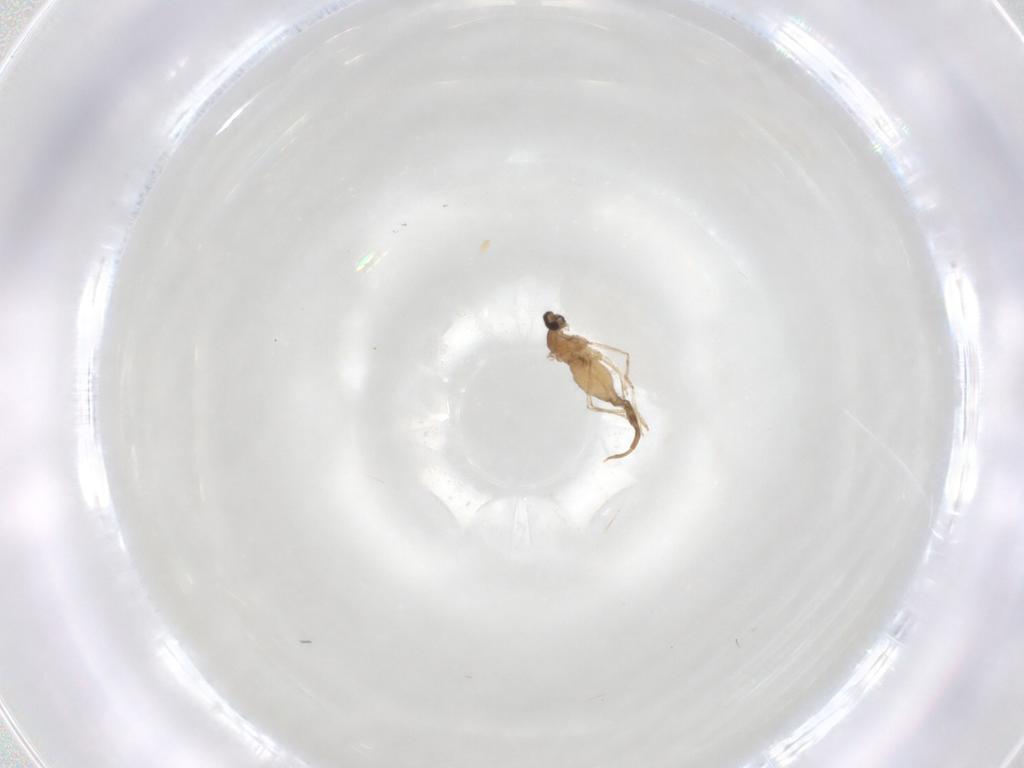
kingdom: Animalia
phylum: Arthropoda
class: Insecta
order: Diptera
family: Cecidomyiidae
